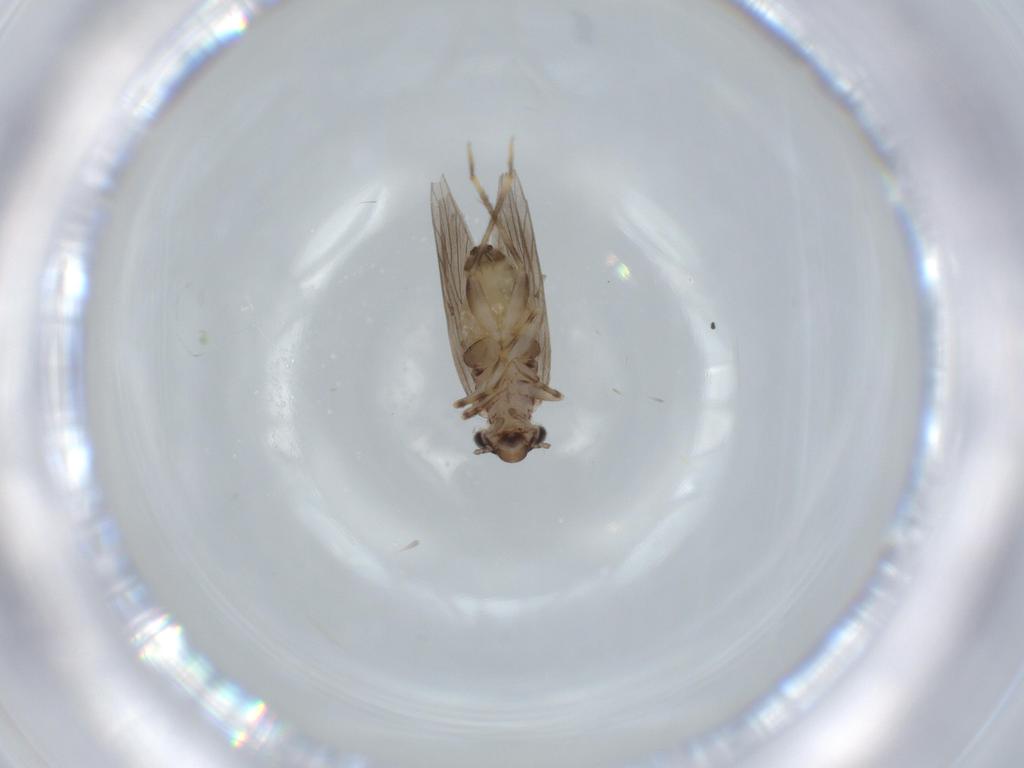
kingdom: Animalia
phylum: Arthropoda
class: Insecta
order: Psocodea
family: Lepidopsocidae
